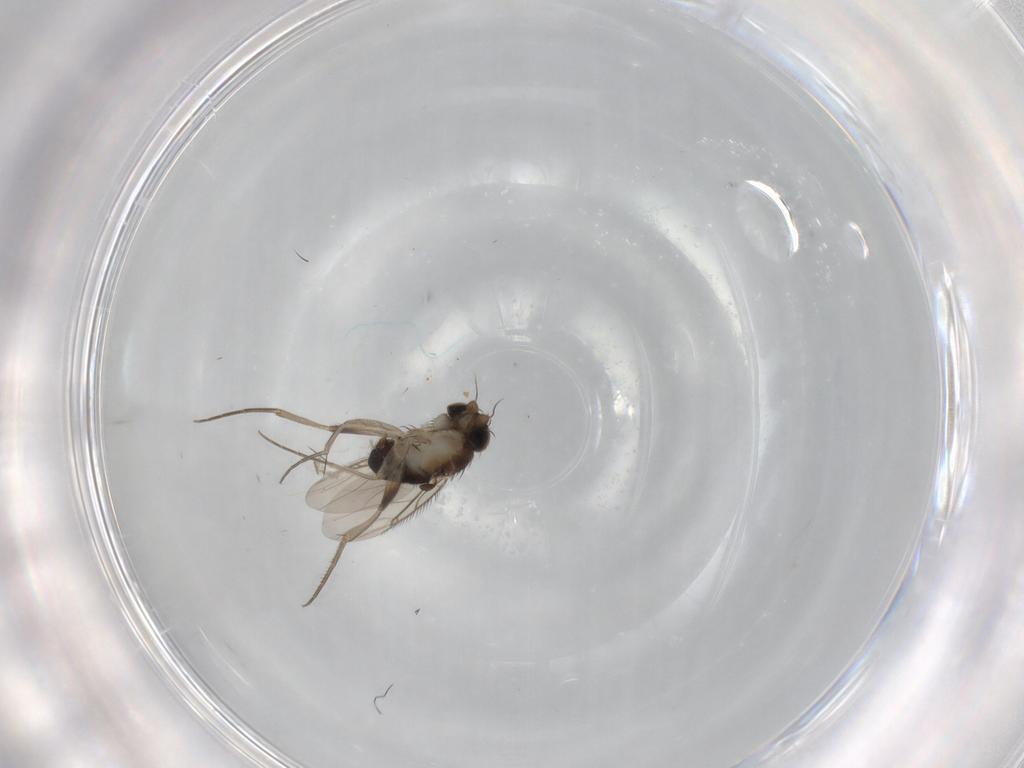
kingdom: Animalia
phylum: Arthropoda
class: Insecta
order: Diptera
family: Phoridae
